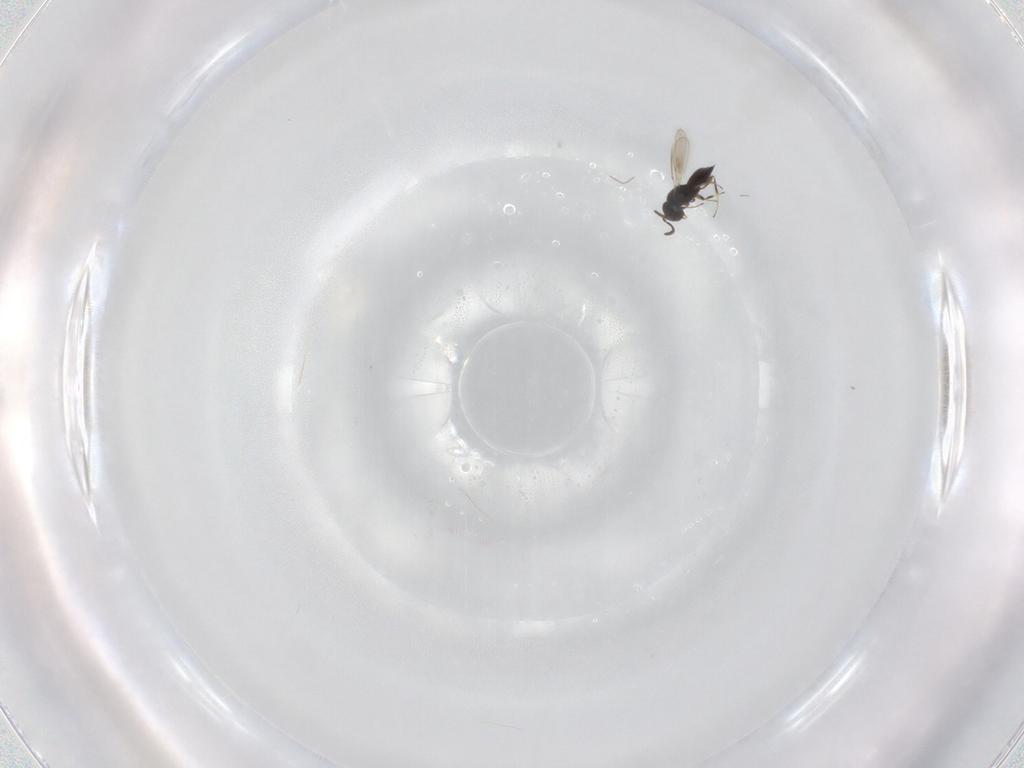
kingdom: Animalia
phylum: Arthropoda
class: Insecta
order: Hymenoptera
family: Scelionidae
